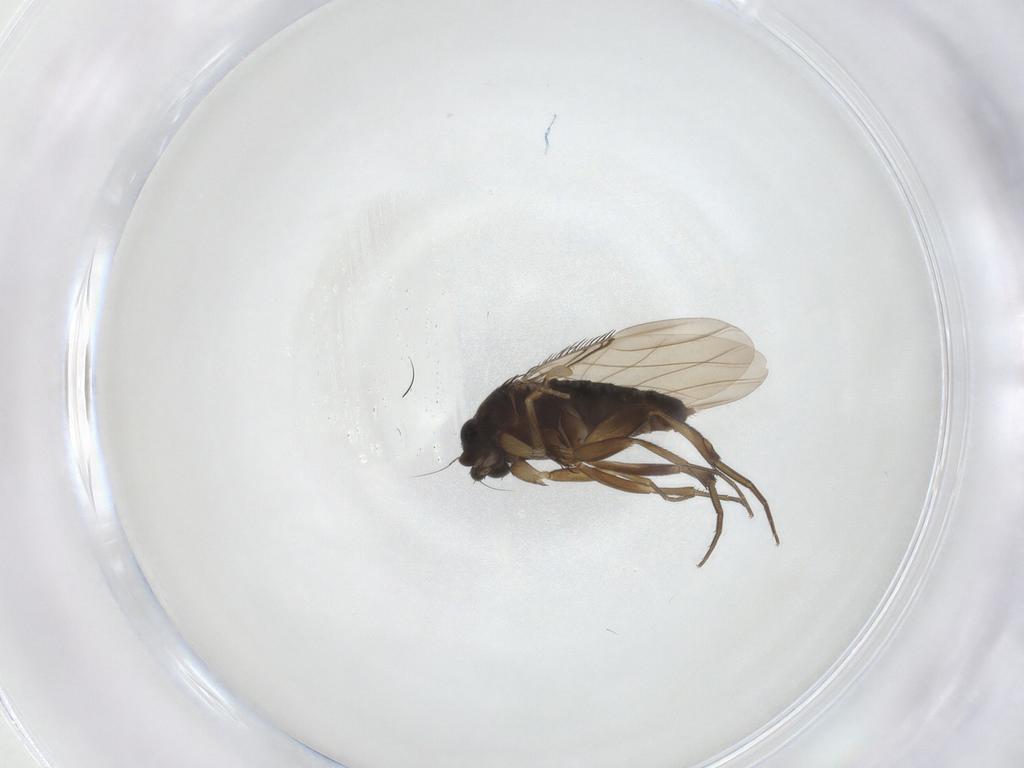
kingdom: Animalia
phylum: Arthropoda
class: Insecta
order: Diptera
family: Phoridae
